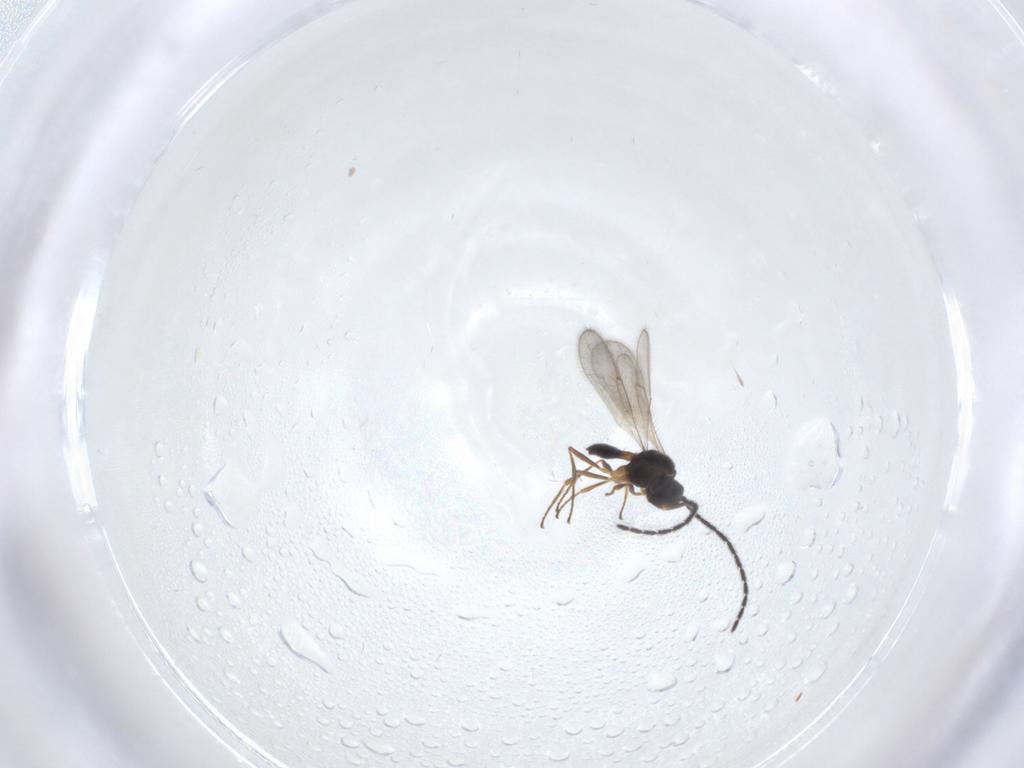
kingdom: Animalia
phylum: Arthropoda
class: Insecta
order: Hymenoptera
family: Scelionidae
